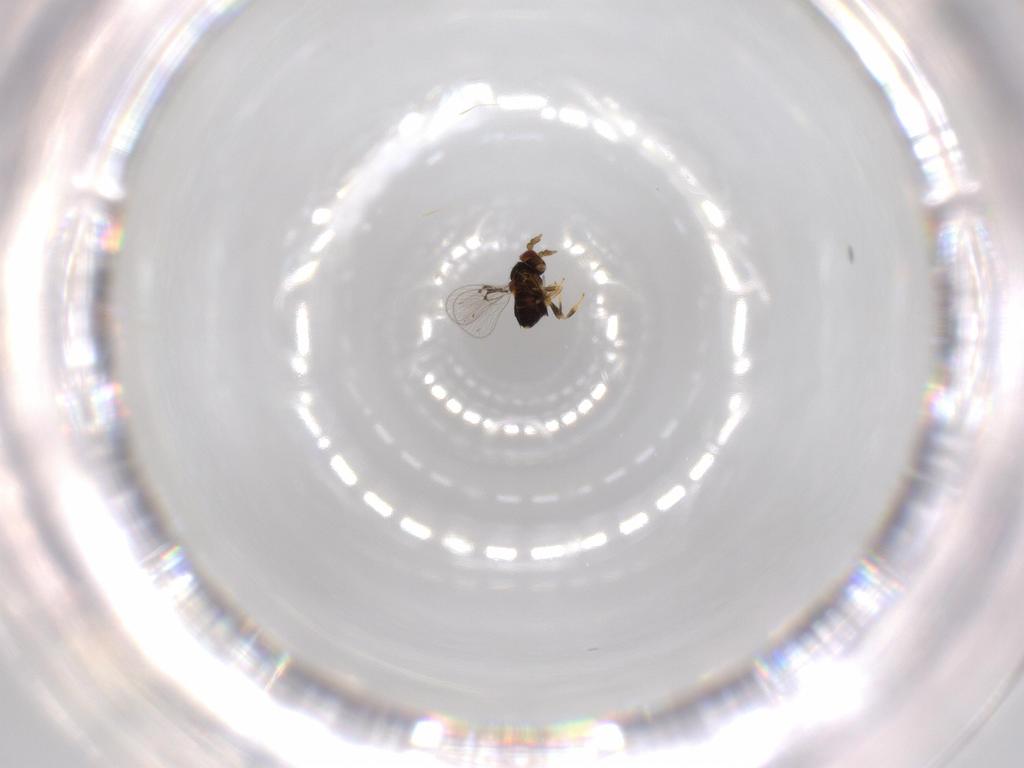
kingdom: Animalia
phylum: Arthropoda
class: Insecta
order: Hymenoptera
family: Trichogrammatidae
